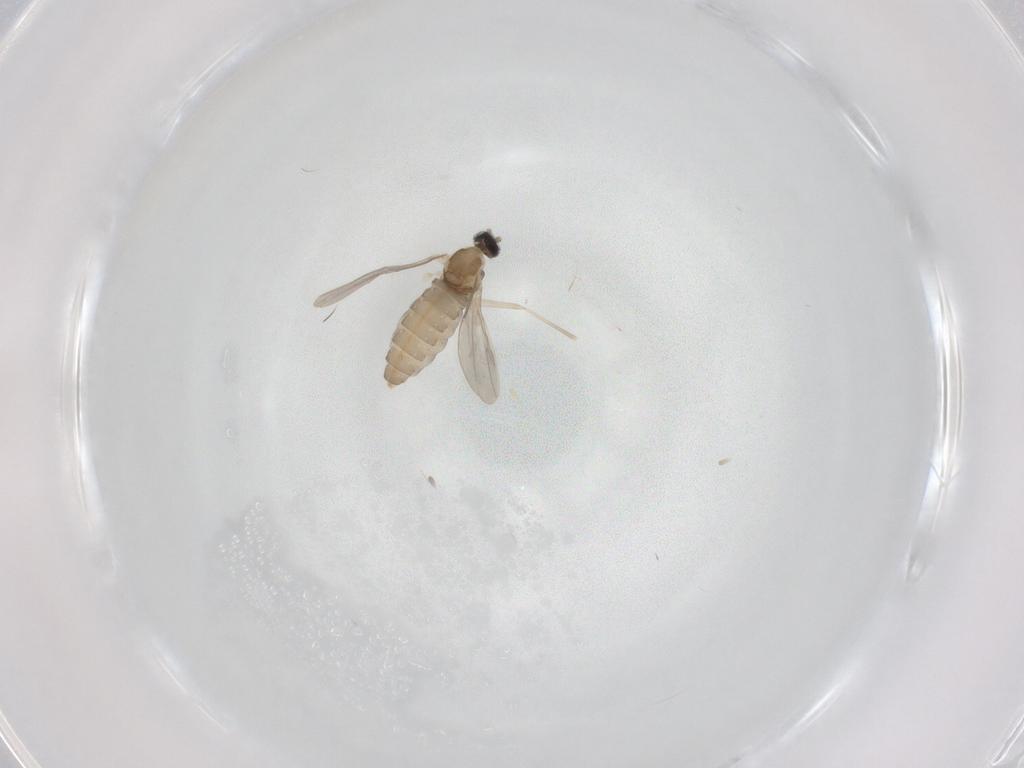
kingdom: Animalia
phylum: Arthropoda
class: Insecta
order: Diptera
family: Cecidomyiidae
